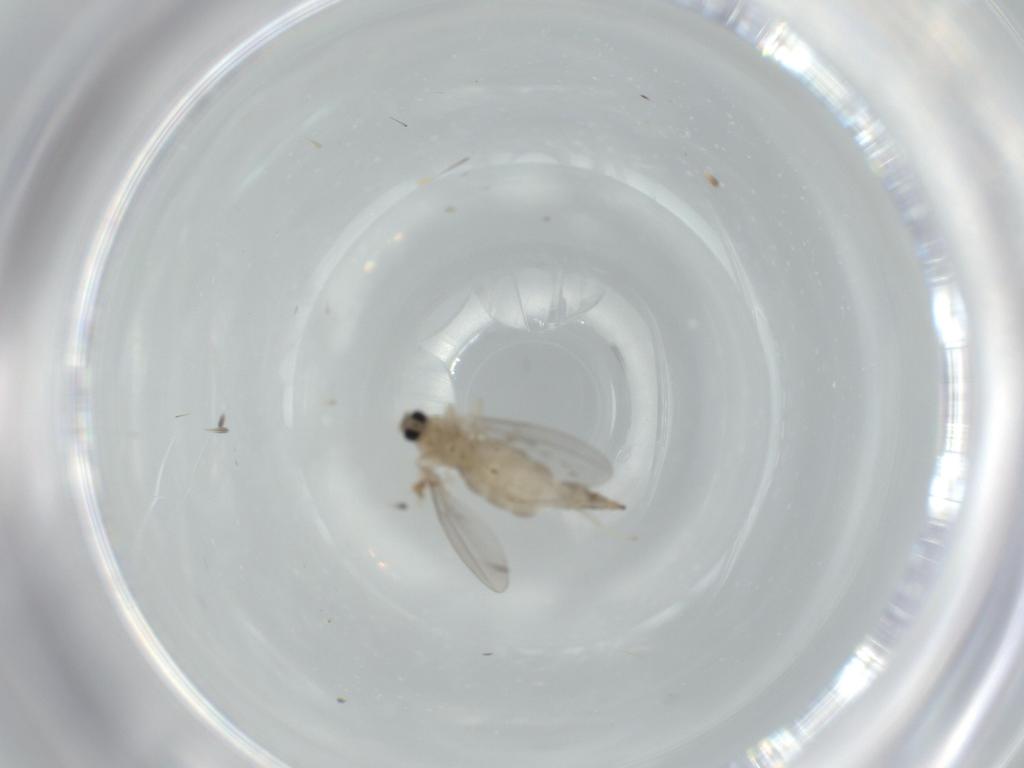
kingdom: Animalia
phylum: Arthropoda
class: Insecta
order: Diptera
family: Cecidomyiidae
